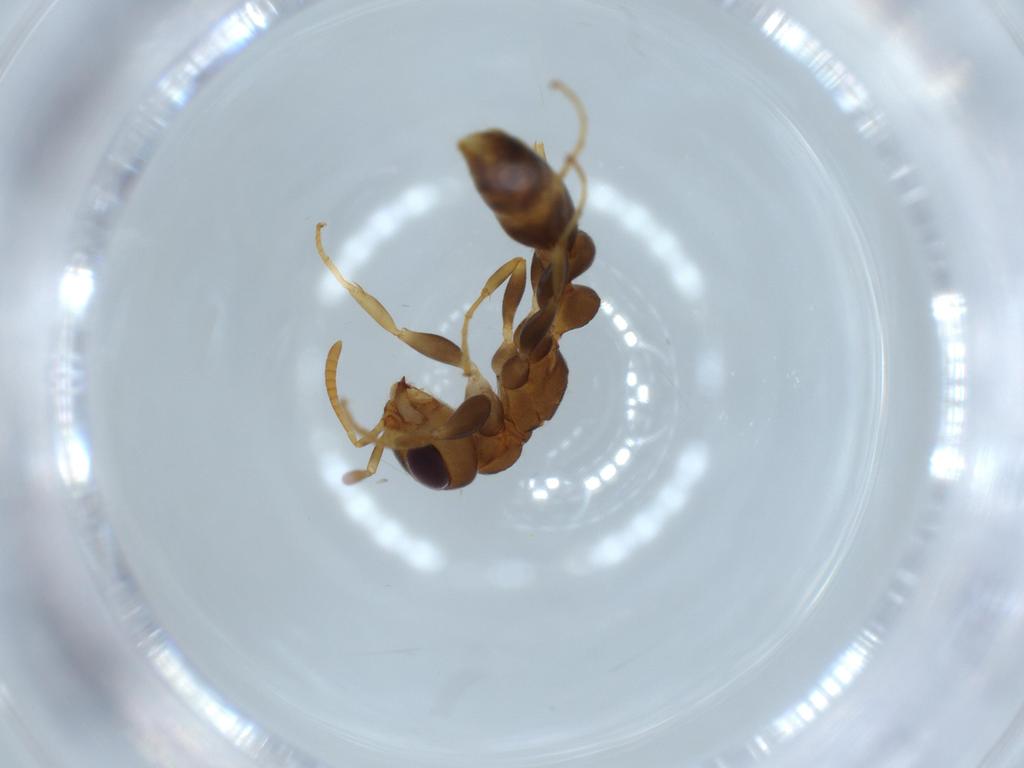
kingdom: Animalia
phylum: Arthropoda
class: Insecta
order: Hymenoptera
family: Formicidae
